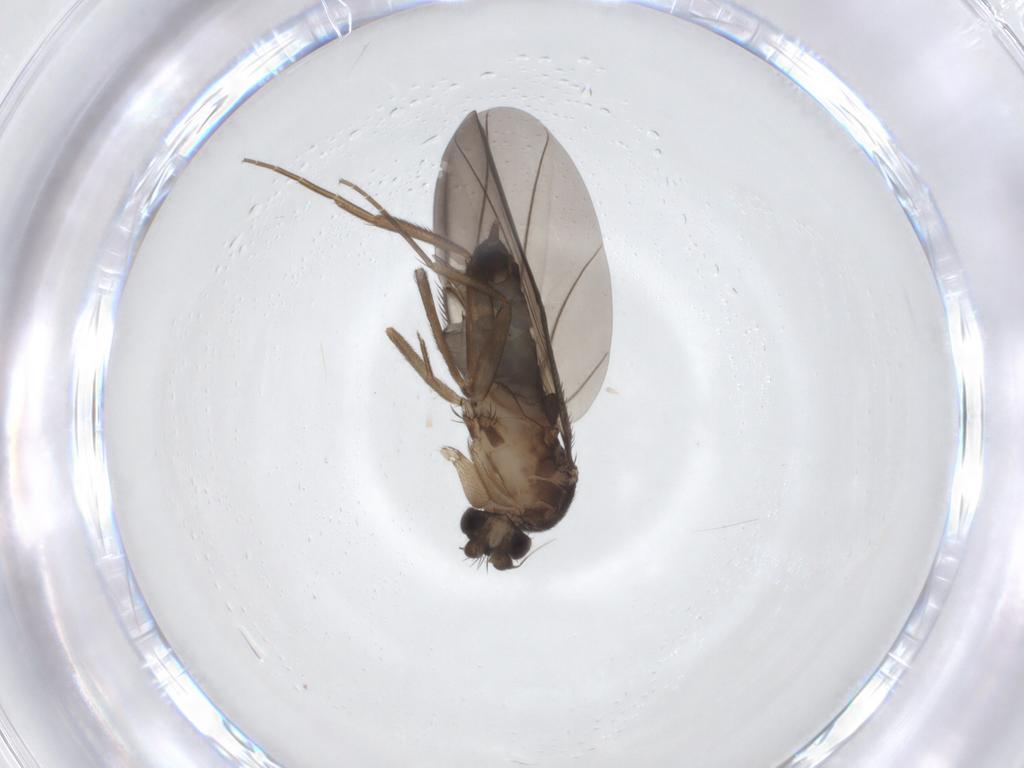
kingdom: Animalia
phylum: Arthropoda
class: Insecta
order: Diptera
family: Phoridae
